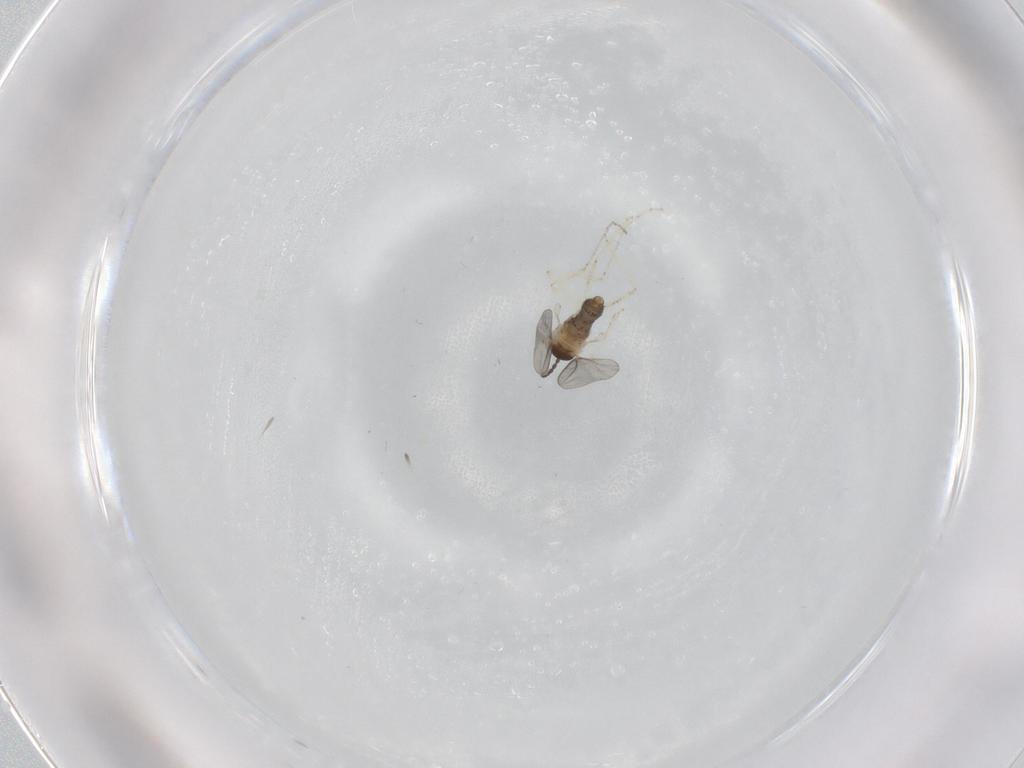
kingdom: Animalia
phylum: Arthropoda
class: Insecta
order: Diptera
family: Cecidomyiidae
